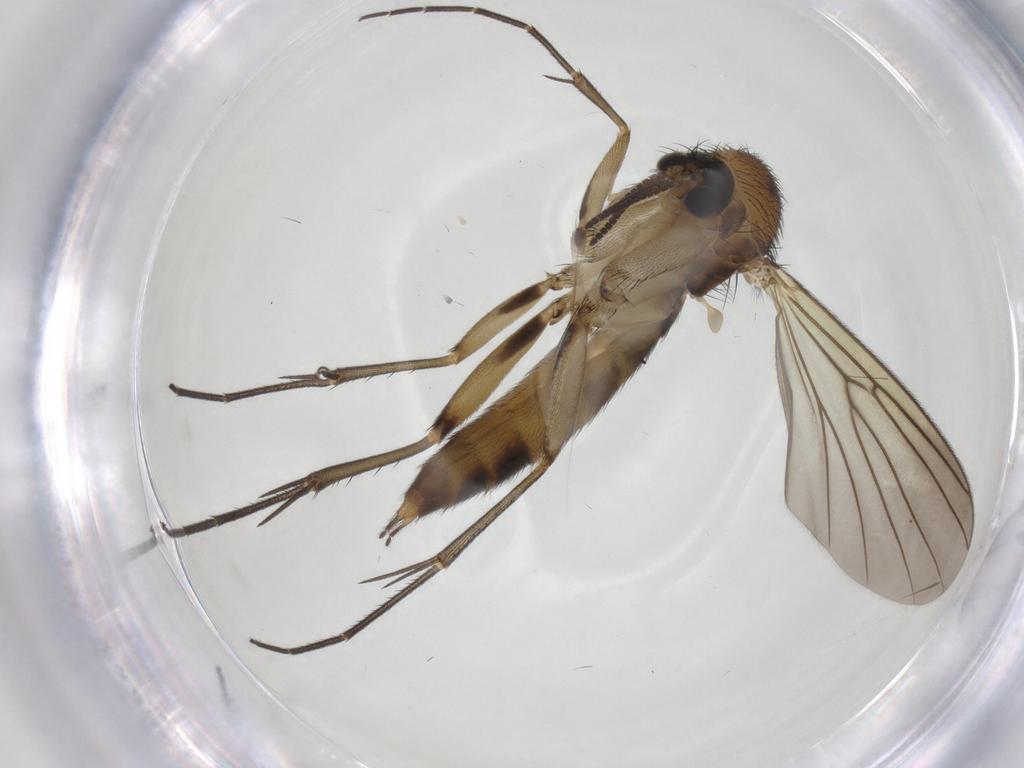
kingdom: Animalia
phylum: Arthropoda
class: Insecta
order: Diptera
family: Mycetophilidae
